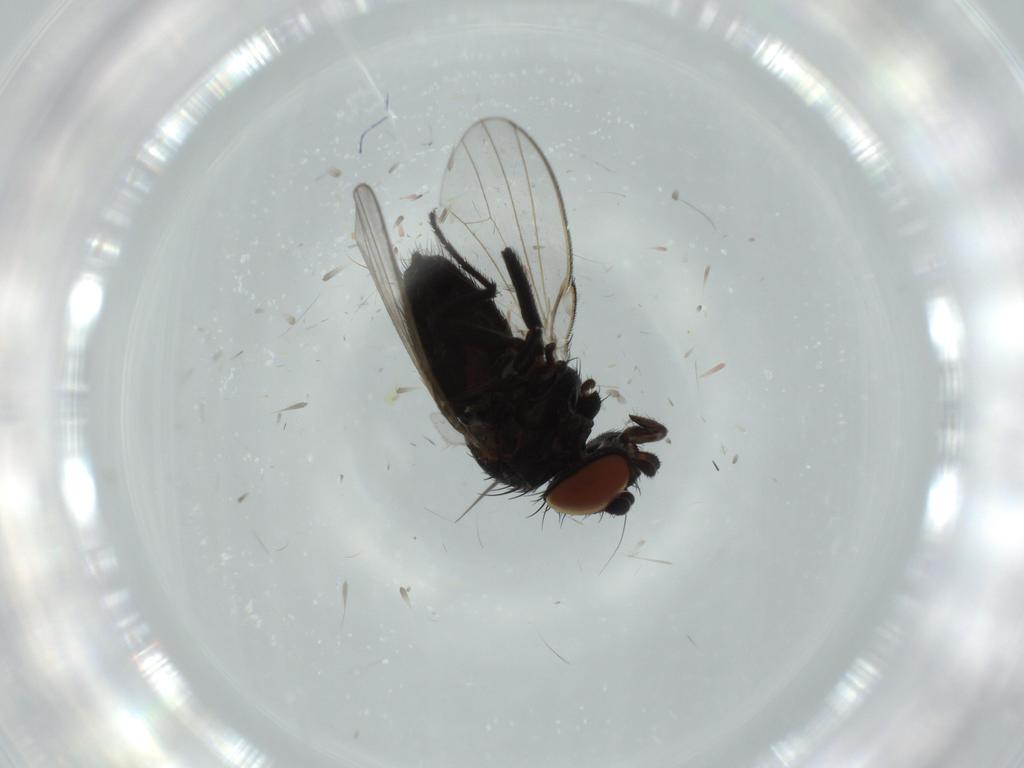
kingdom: Animalia
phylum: Arthropoda
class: Insecta
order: Diptera
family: Milichiidae
